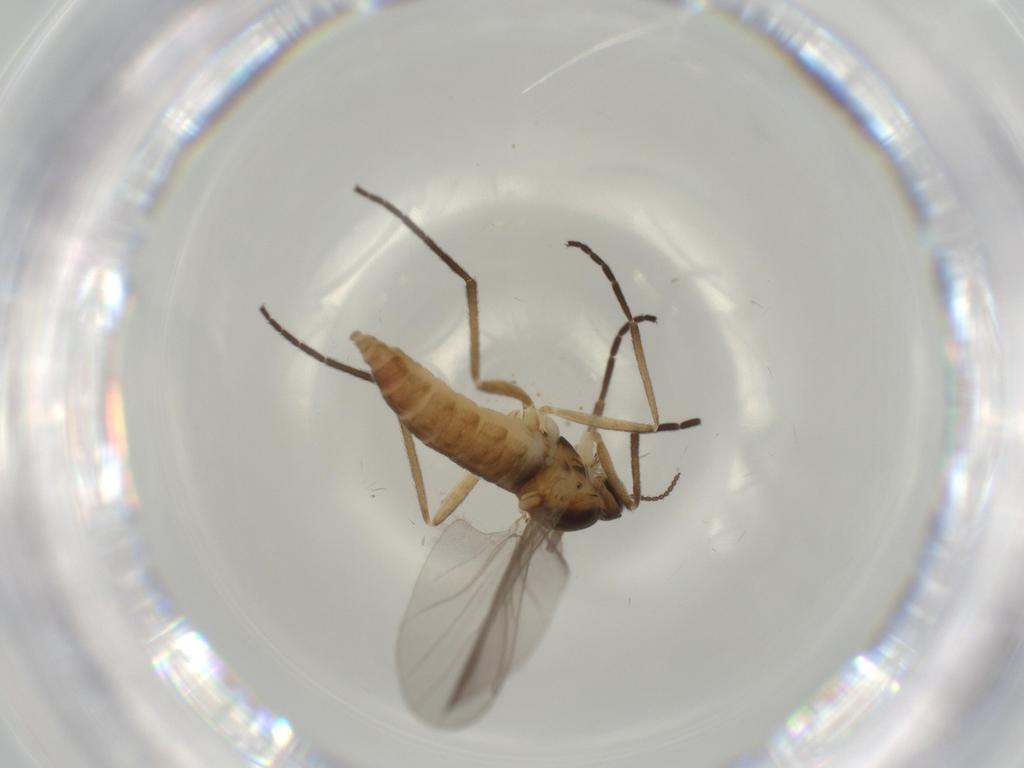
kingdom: Animalia
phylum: Arthropoda
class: Insecta
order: Diptera
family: Cecidomyiidae
